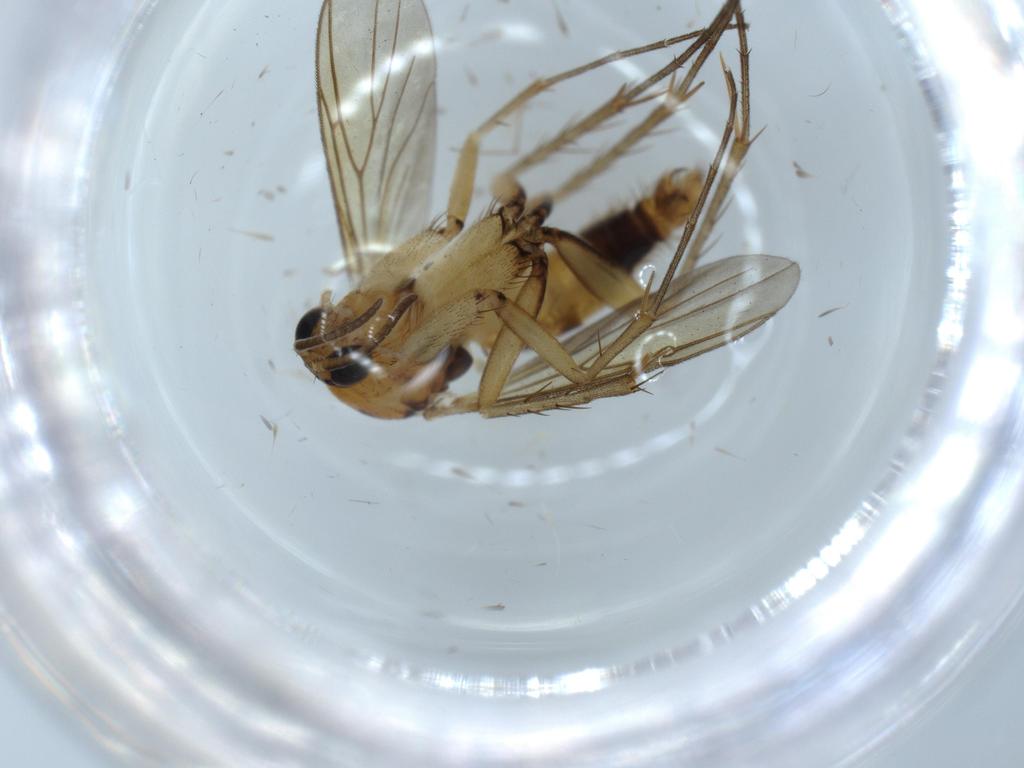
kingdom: Animalia
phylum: Arthropoda
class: Insecta
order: Diptera
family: Mycetophilidae
